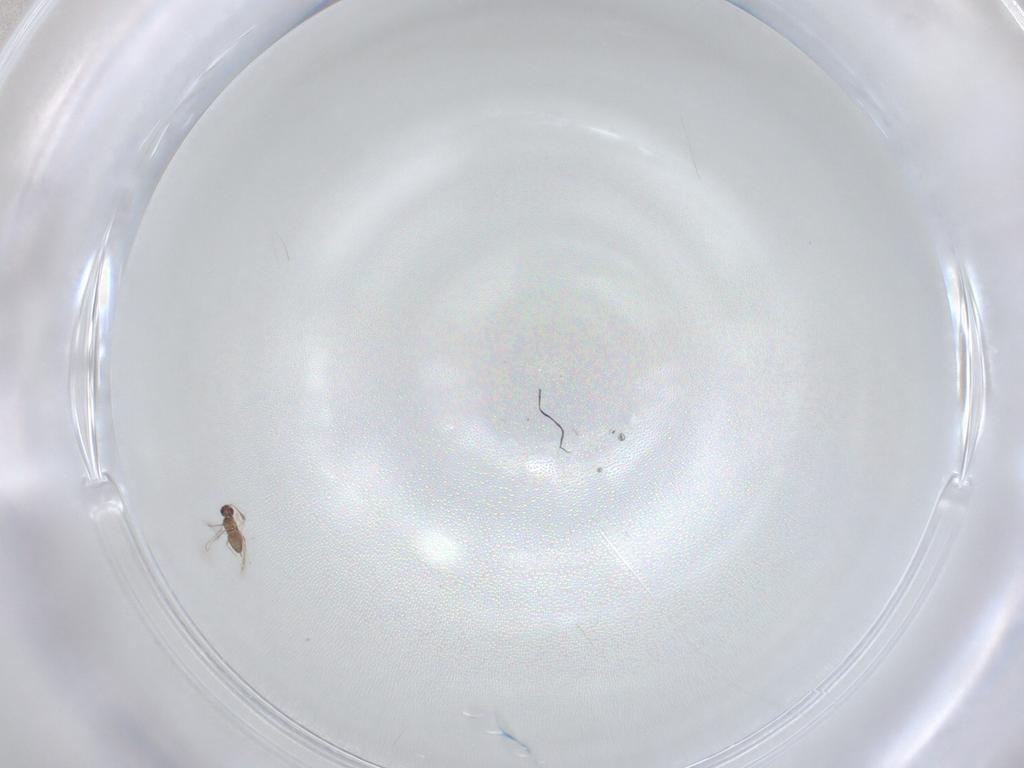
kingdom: Animalia
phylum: Arthropoda
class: Insecta
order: Hymenoptera
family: Mymaridae
